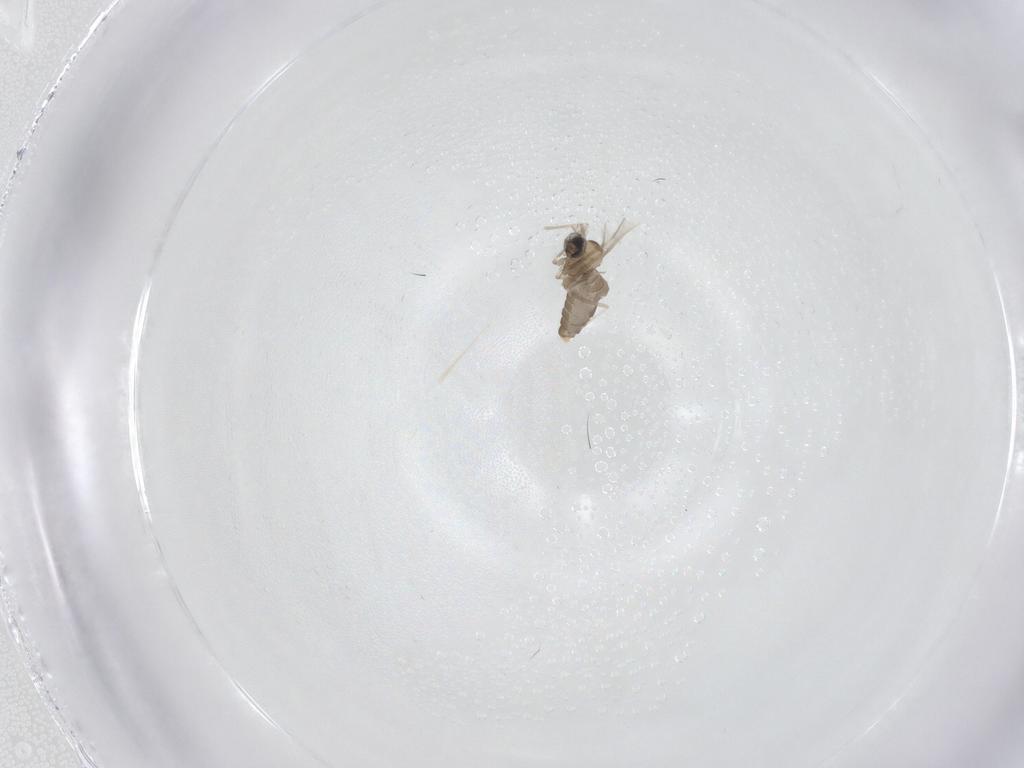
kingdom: Animalia
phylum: Arthropoda
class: Insecta
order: Diptera
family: Cecidomyiidae
